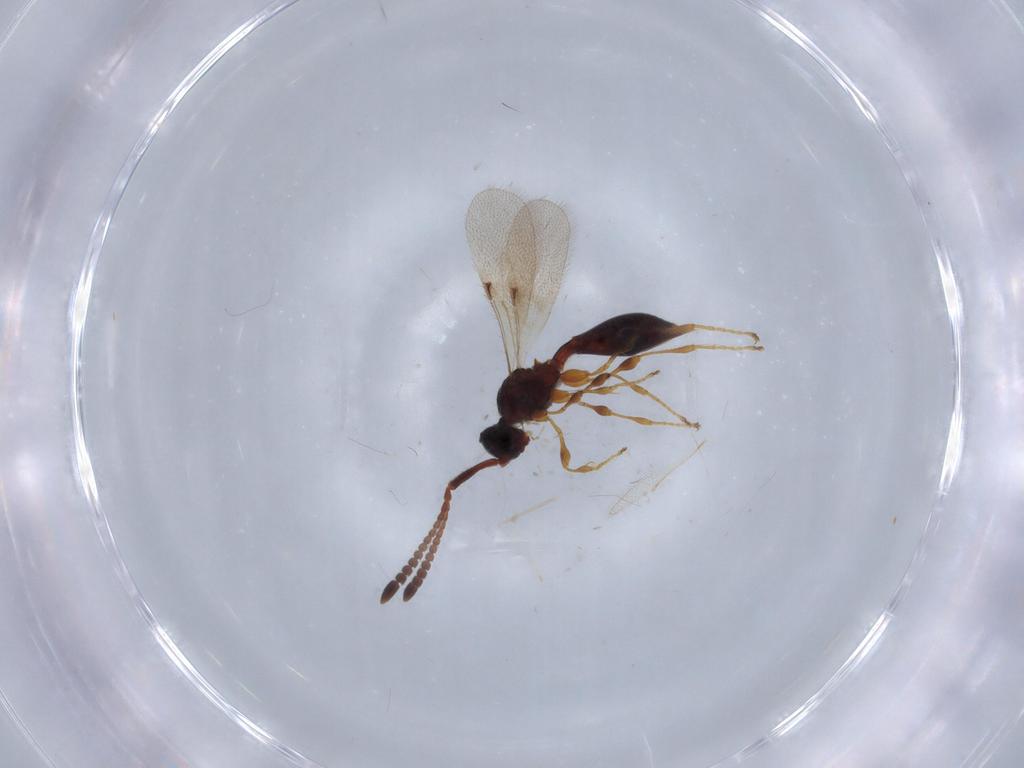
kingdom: Animalia
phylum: Arthropoda
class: Insecta
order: Hymenoptera
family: Diapriidae
